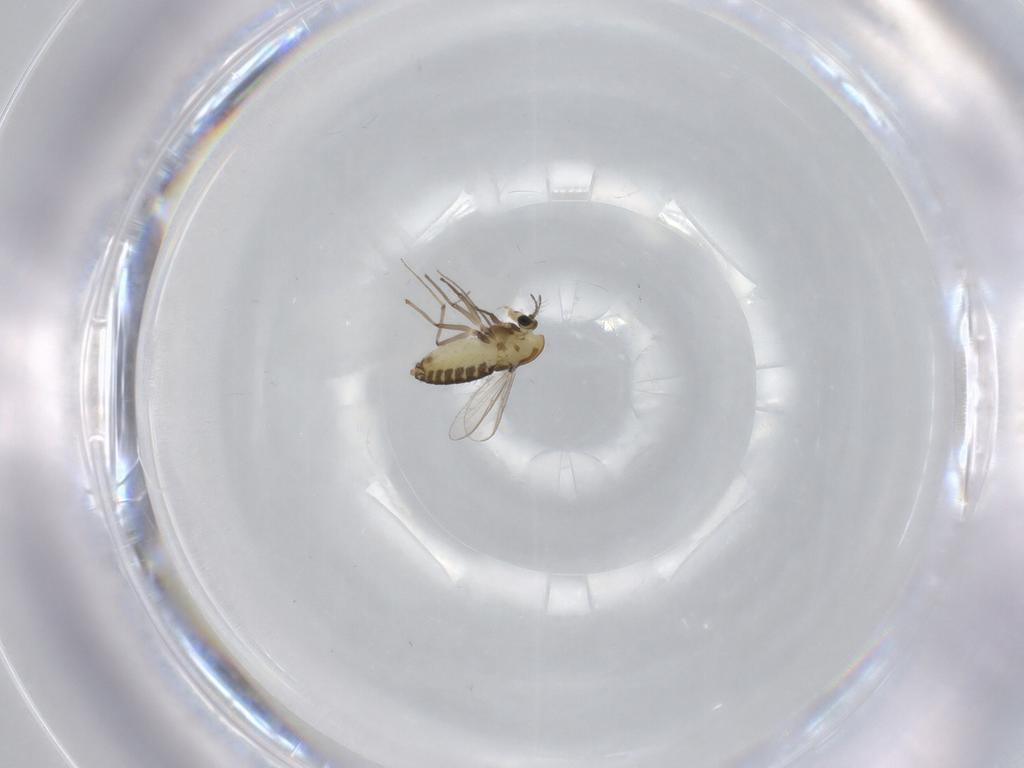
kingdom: Animalia
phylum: Arthropoda
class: Insecta
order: Diptera
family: Chironomidae
